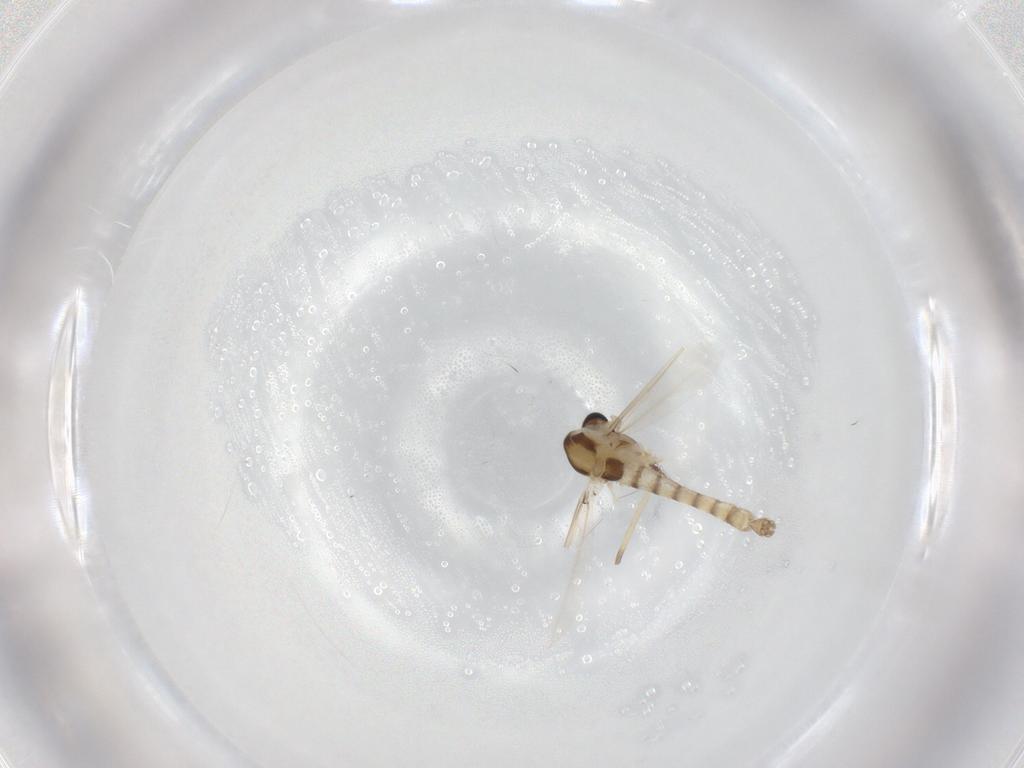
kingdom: Animalia
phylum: Arthropoda
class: Insecta
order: Diptera
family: Chironomidae
